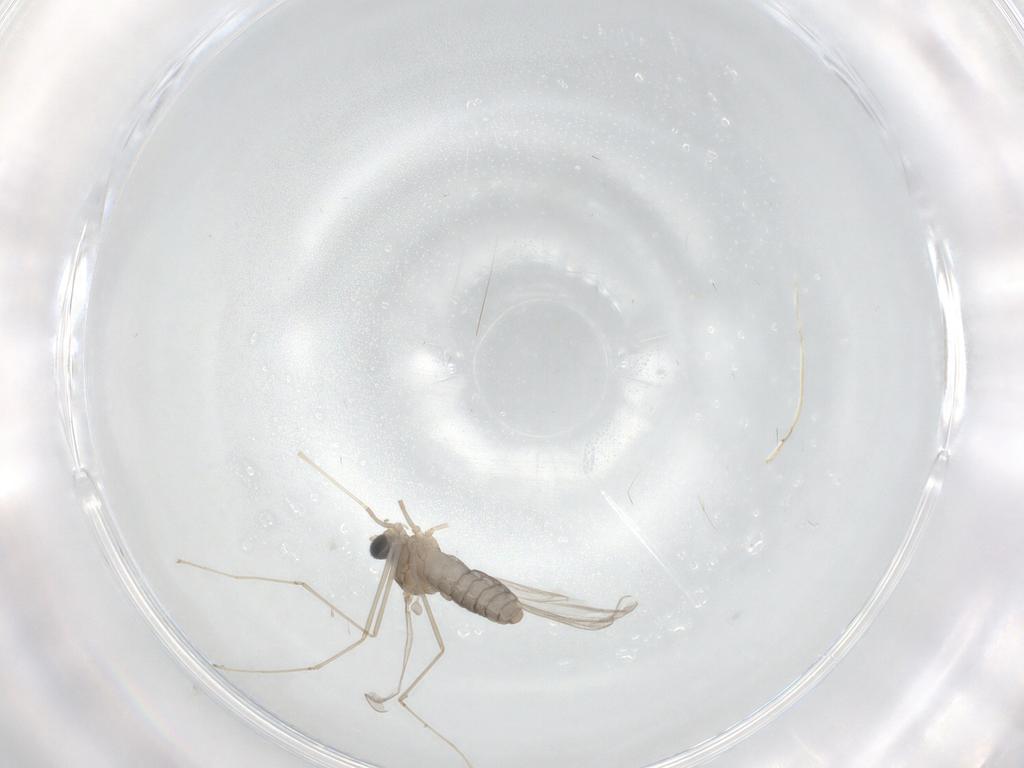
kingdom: Animalia
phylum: Arthropoda
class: Insecta
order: Diptera
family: Cecidomyiidae
